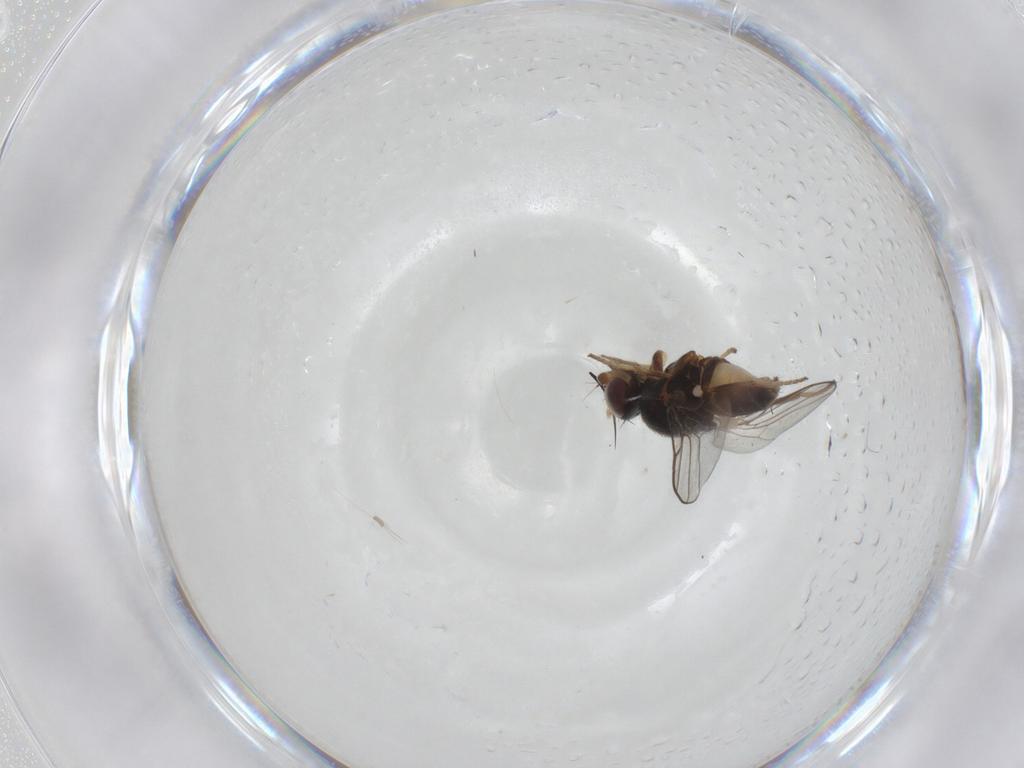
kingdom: Animalia
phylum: Arthropoda
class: Insecta
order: Diptera
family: Chloropidae
